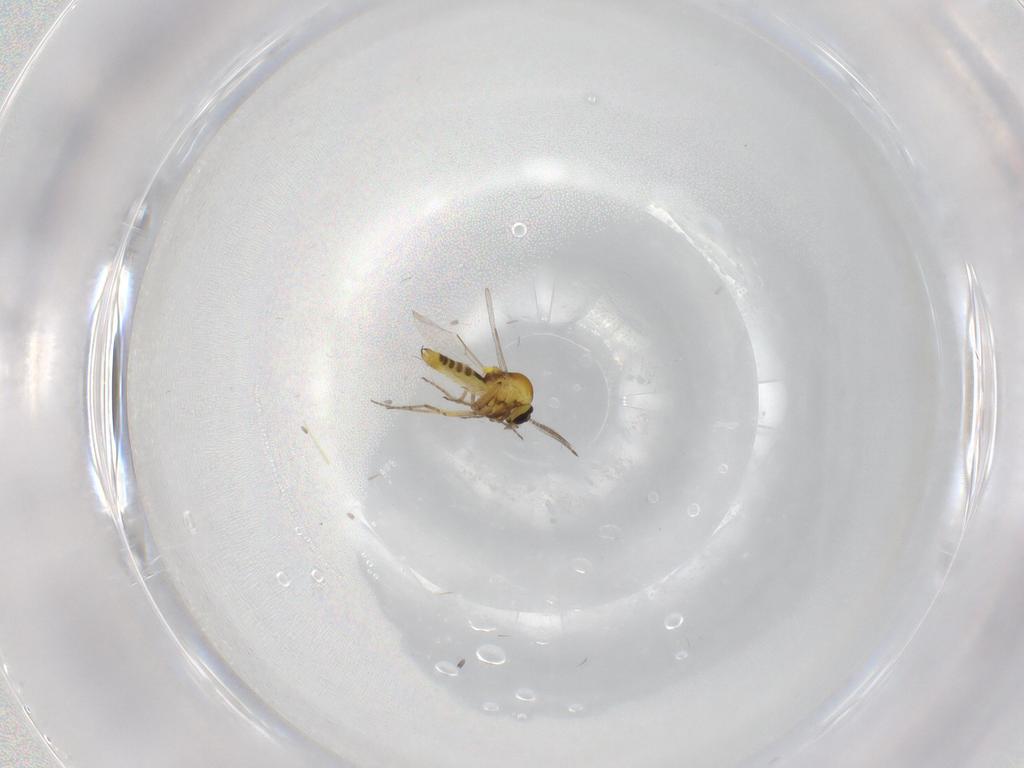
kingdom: Animalia
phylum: Arthropoda
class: Insecta
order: Diptera
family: Ceratopogonidae
